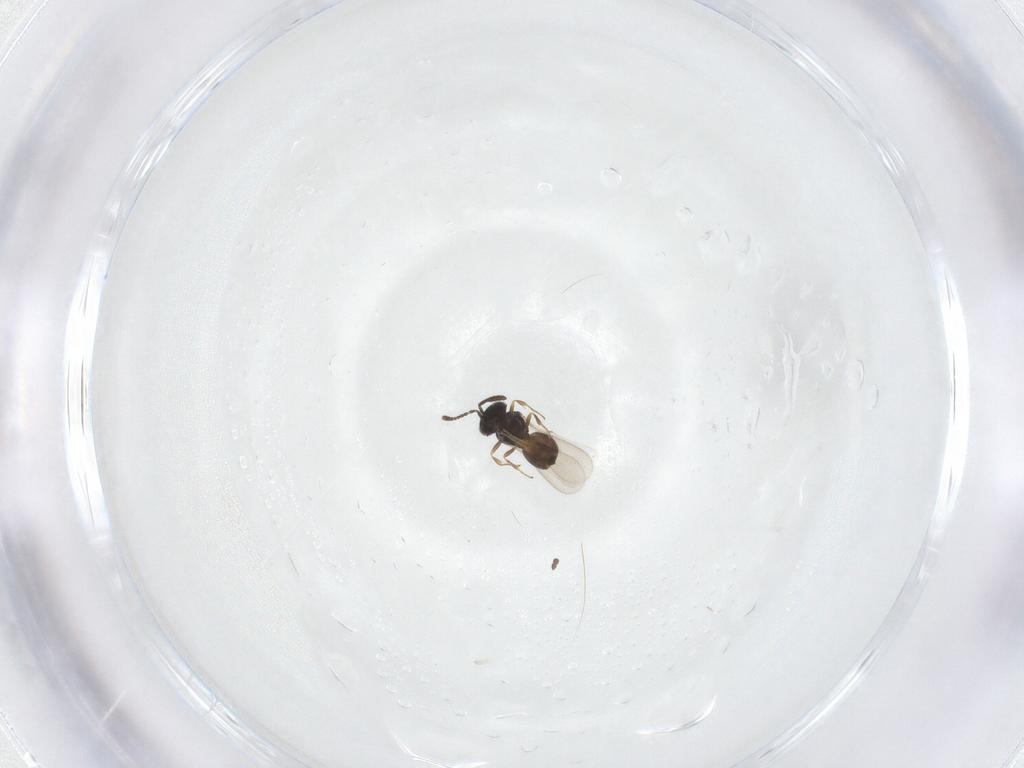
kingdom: Animalia
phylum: Arthropoda
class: Insecta
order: Hymenoptera
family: Scelionidae
